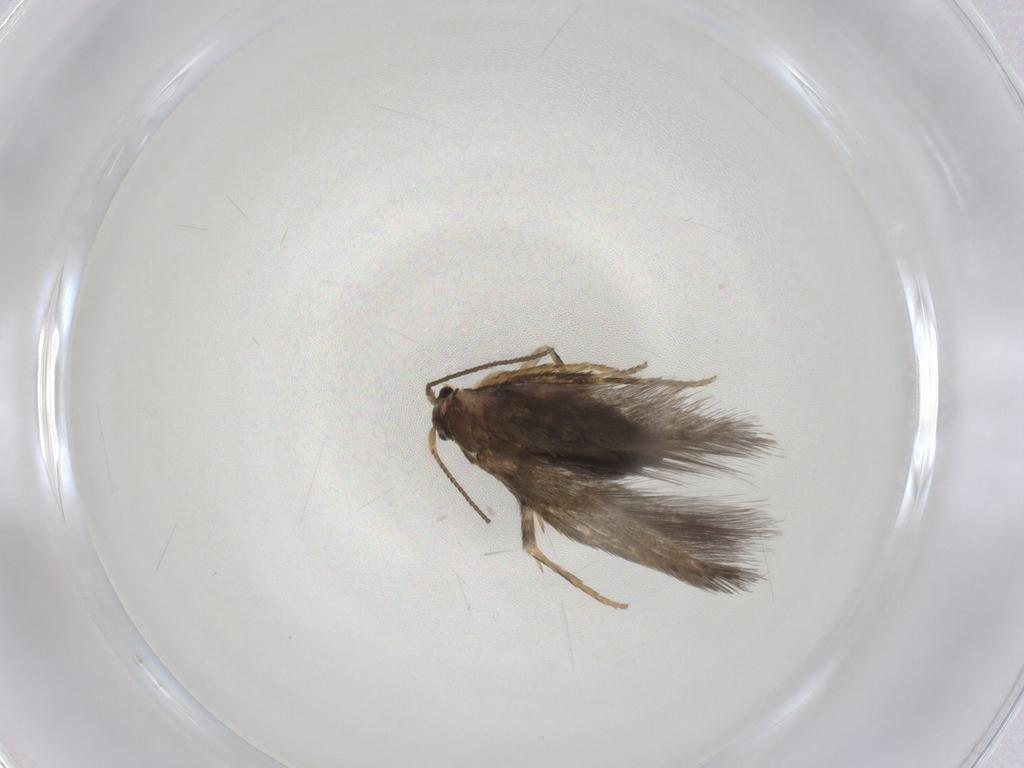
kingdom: Animalia
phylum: Arthropoda
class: Insecta
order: Lepidoptera
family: Nepticulidae
